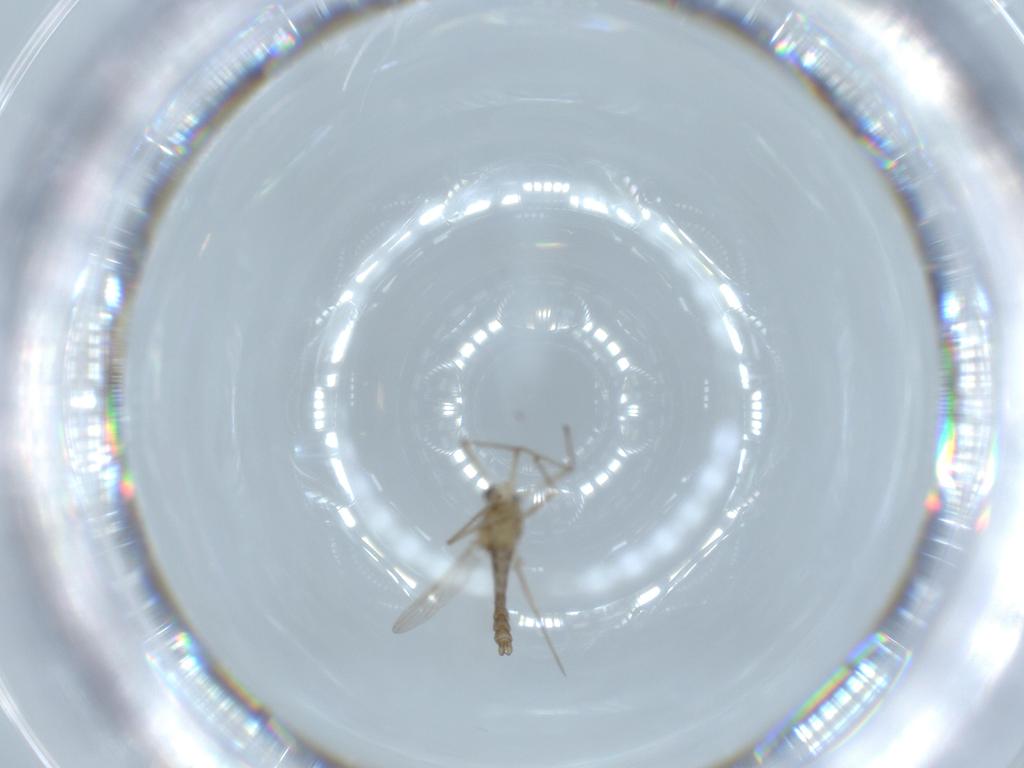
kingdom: Animalia
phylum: Arthropoda
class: Insecta
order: Diptera
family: Chironomidae
